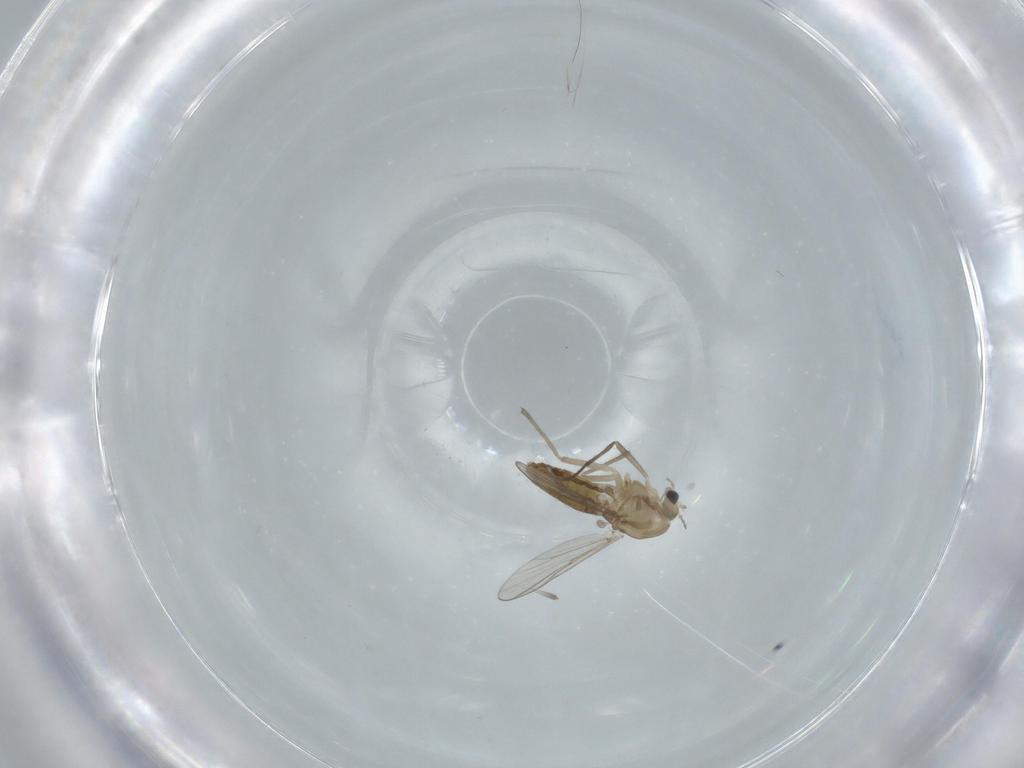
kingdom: Animalia
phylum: Arthropoda
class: Insecta
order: Diptera
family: Chironomidae
